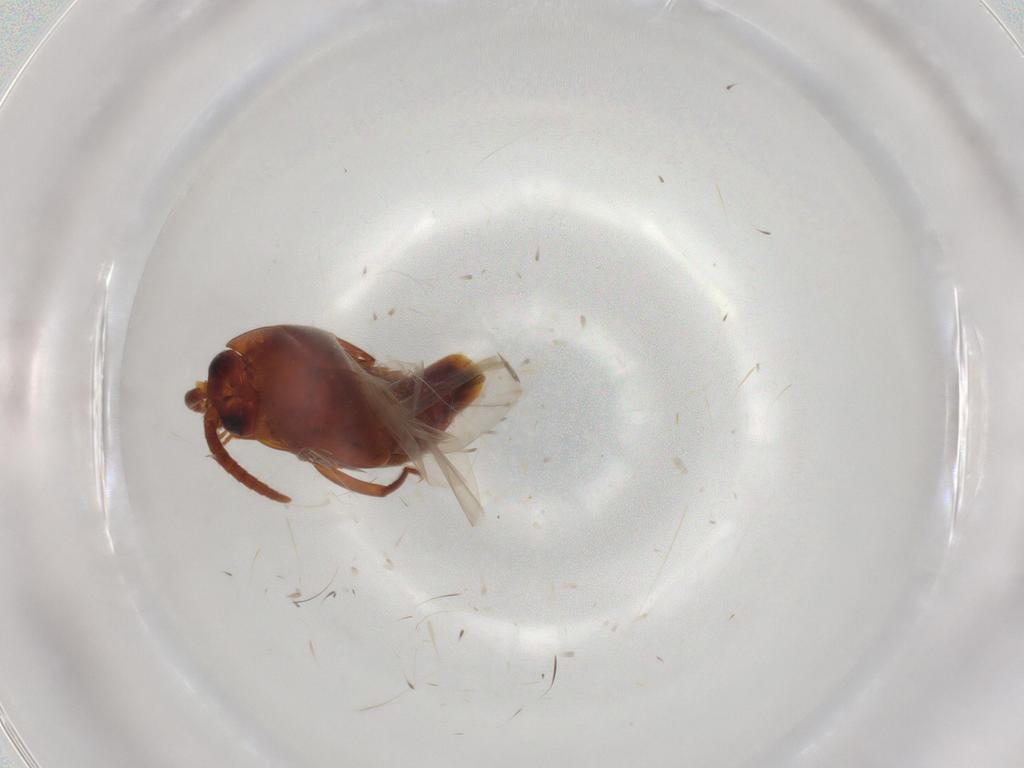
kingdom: Animalia
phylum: Arthropoda
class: Insecta
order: Coleoptera
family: Staphylinidae
